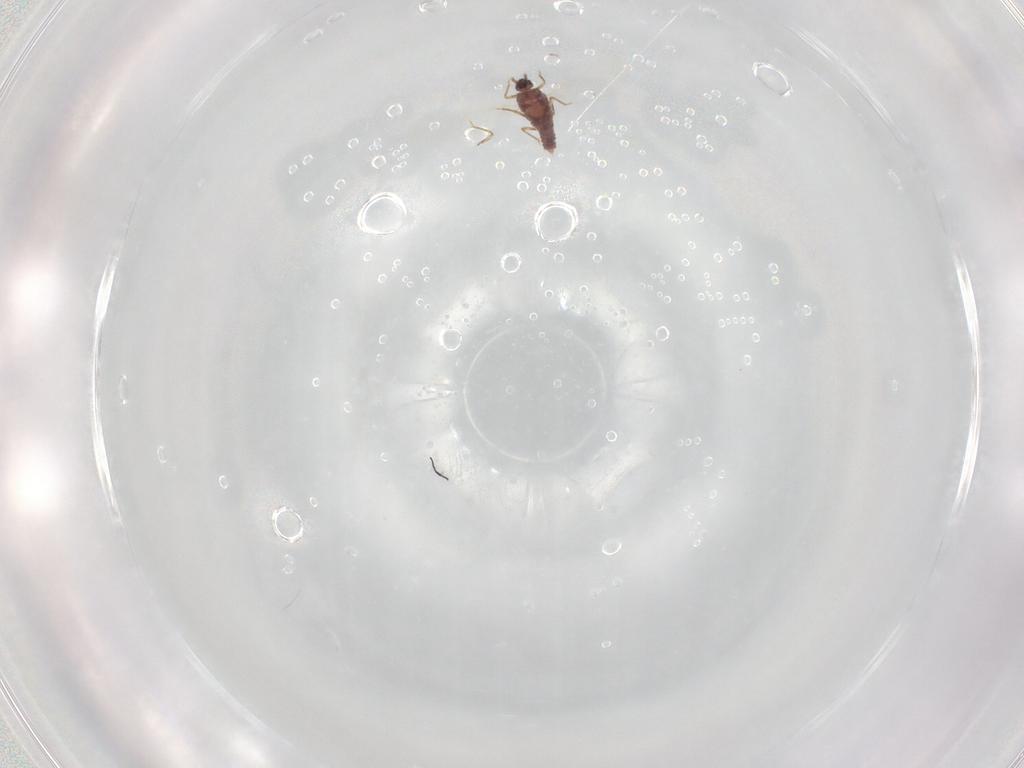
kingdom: Animalia
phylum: Arthropoda
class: Insecta
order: Hemiptera
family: Pseudococcidae
